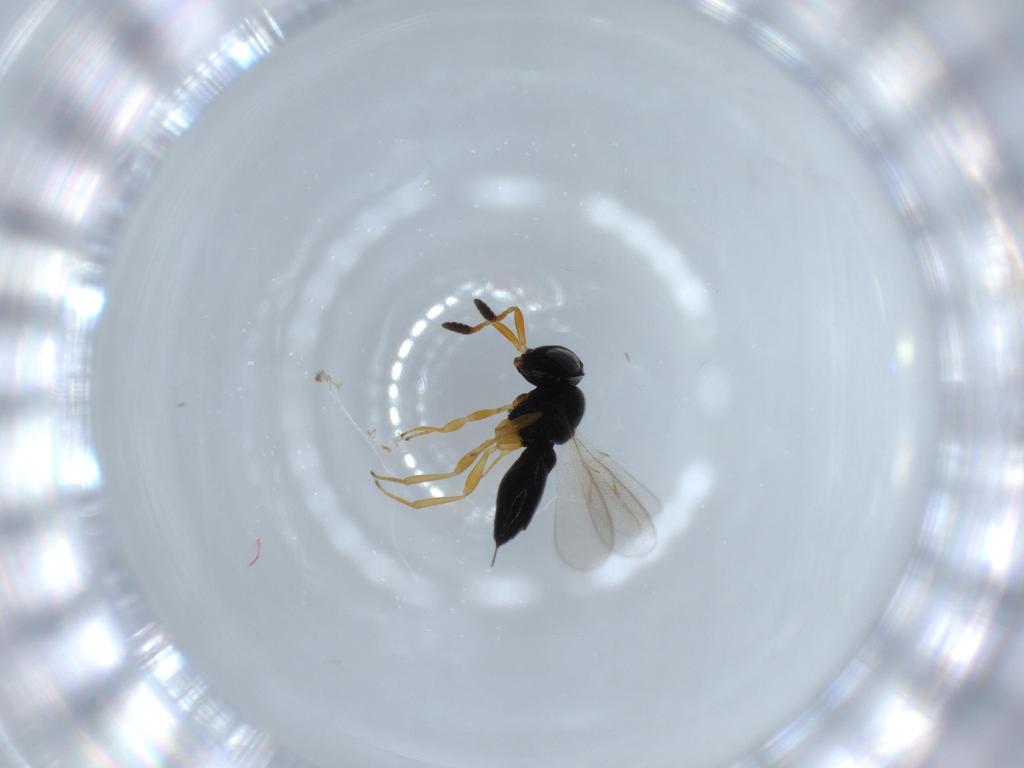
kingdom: Animalia
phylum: Arthropoda
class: Insecta
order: Hymenoptera
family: Scelionidae
